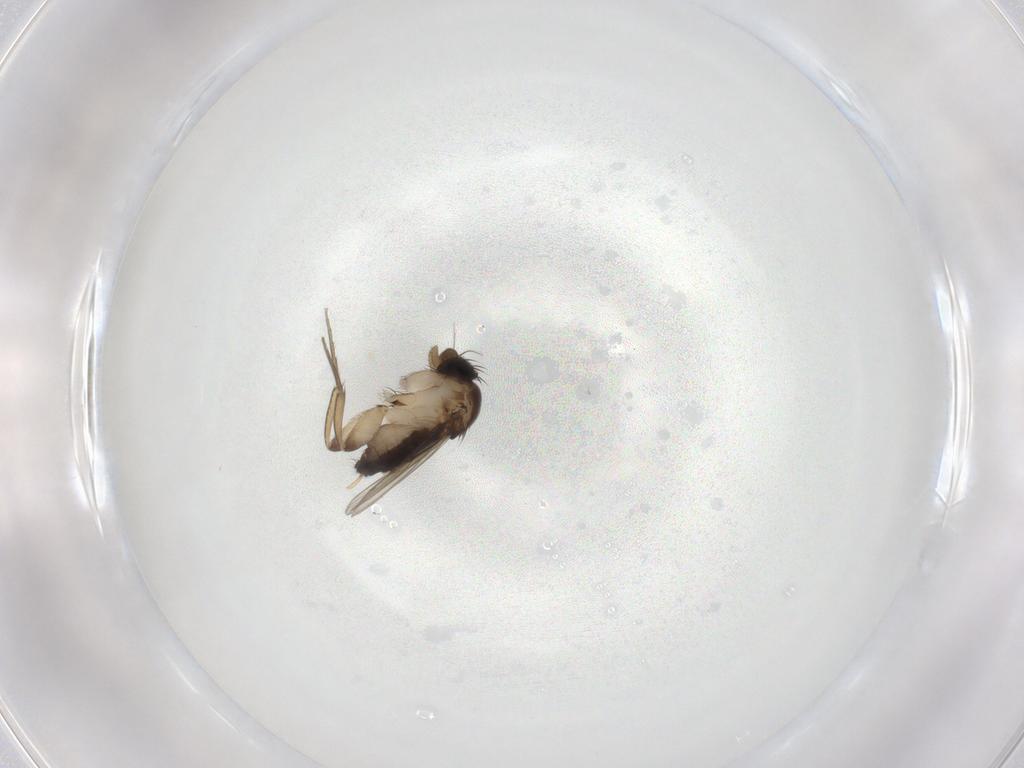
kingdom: Animalia
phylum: Arthropoda
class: Insecta
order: Diptera
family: Phoridae
